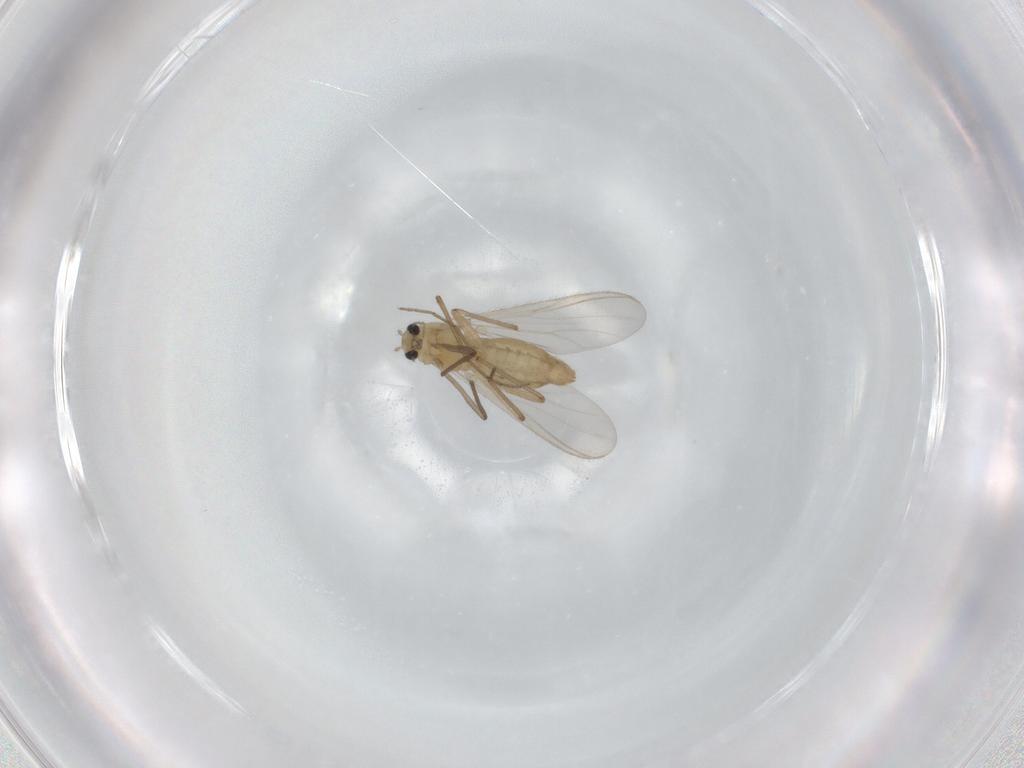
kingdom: Animalia
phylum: Arthropoda
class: Insecta
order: Diptera
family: Chironomidae
